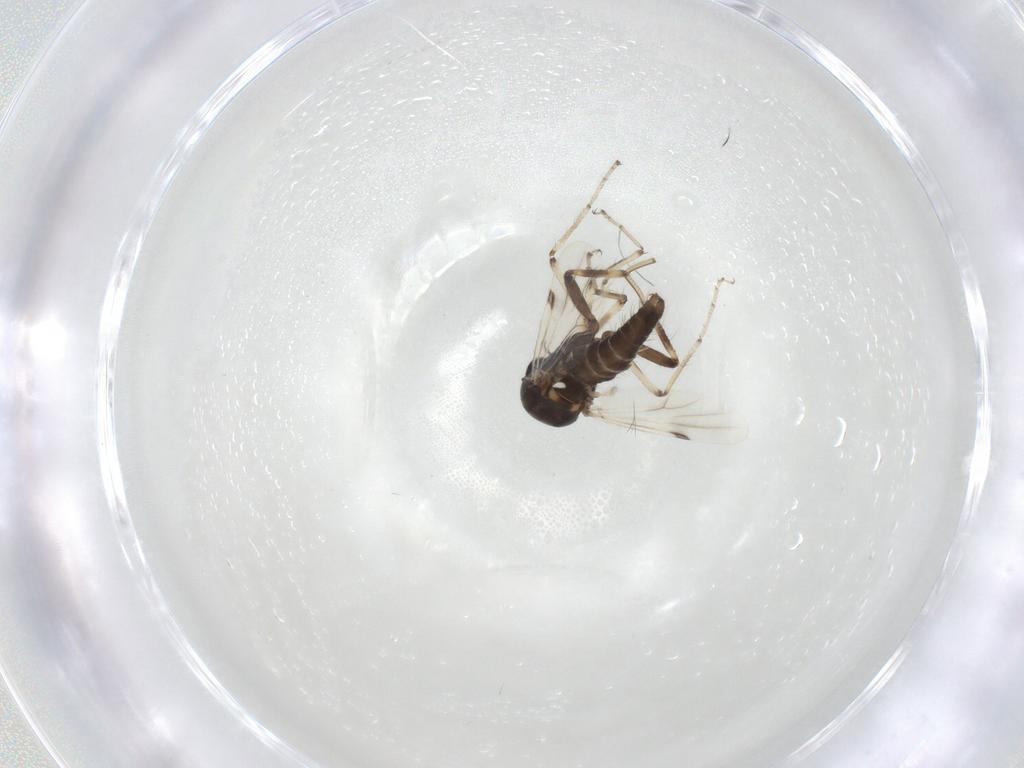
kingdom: Animalia
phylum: Arthropoda
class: Insecta
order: Diptera
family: Ceratopogonidae
